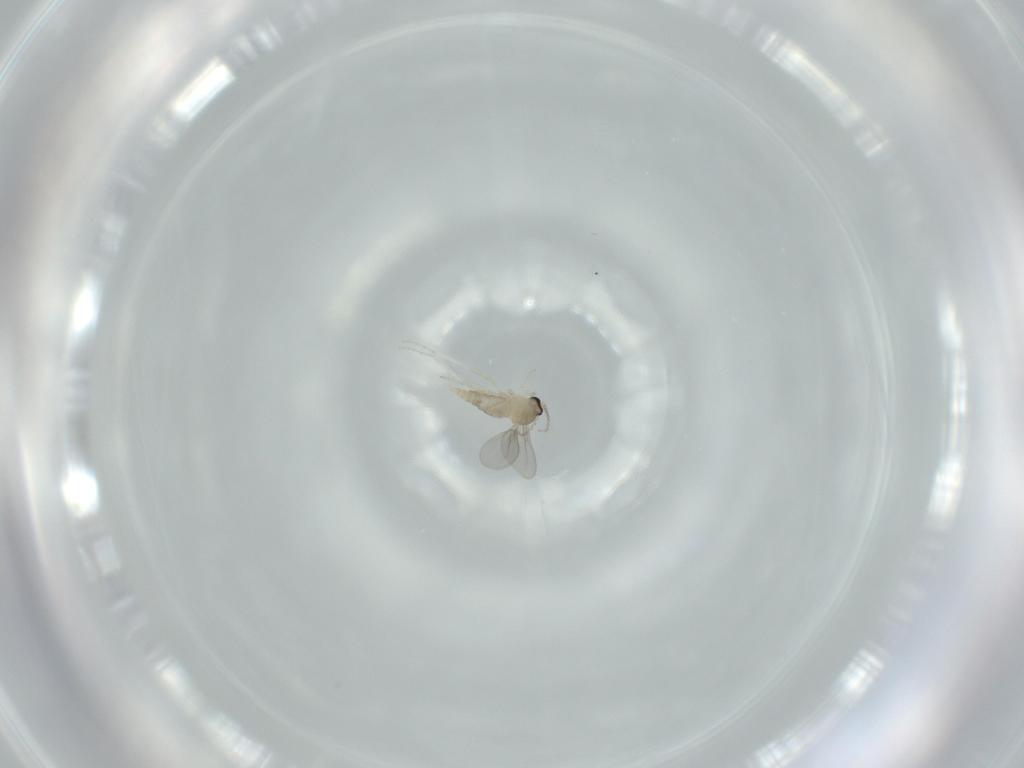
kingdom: Animalia
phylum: Arthropoda
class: Insecta
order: Diptera
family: Cecidomyiidae
